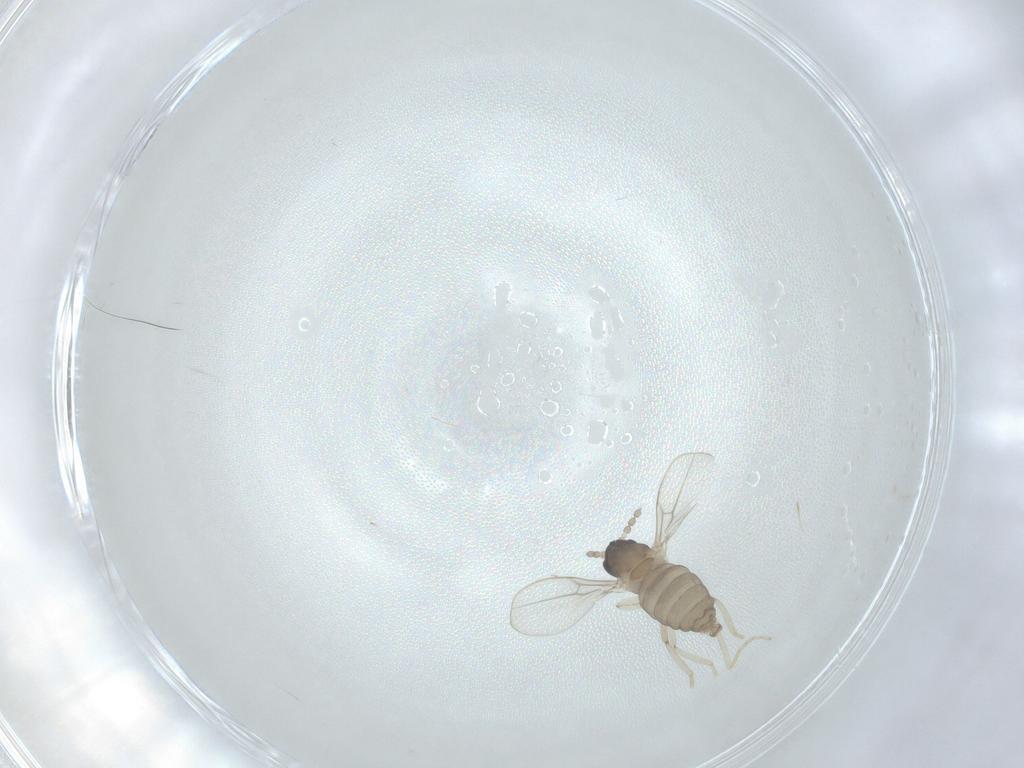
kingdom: Animalia
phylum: Arthropoda
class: Insecta
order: Diptera
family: Cecidomyiidae
